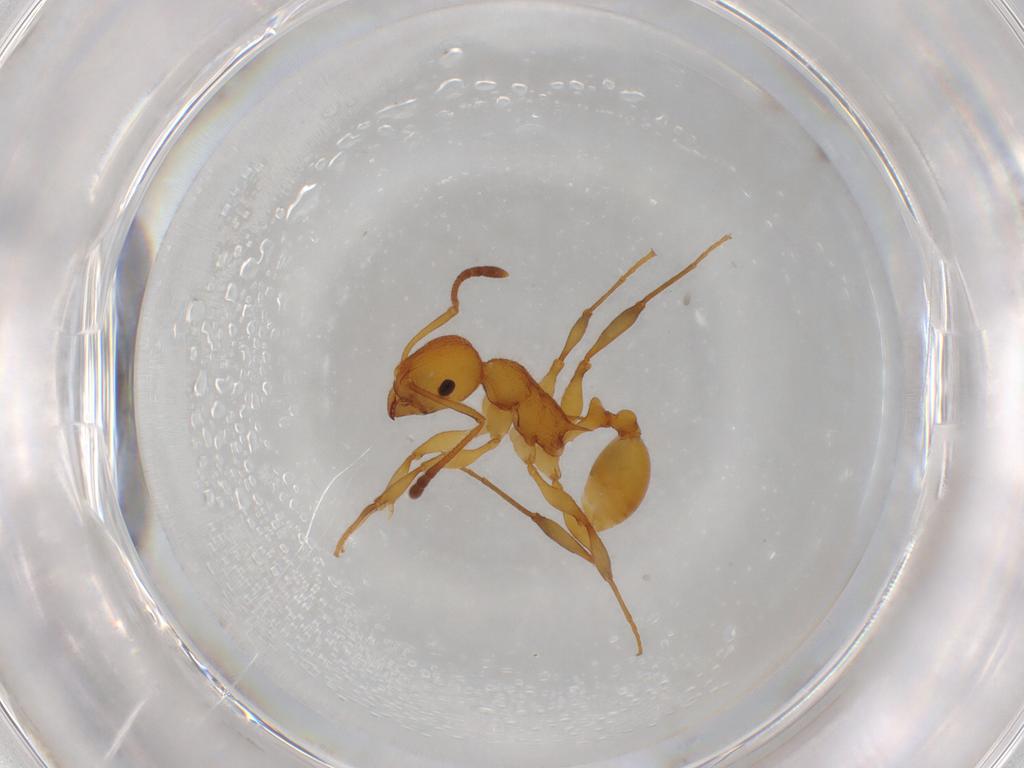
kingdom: Animalia
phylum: Arthropoda
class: Insecta
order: Hymenoptera
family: Formicidae
